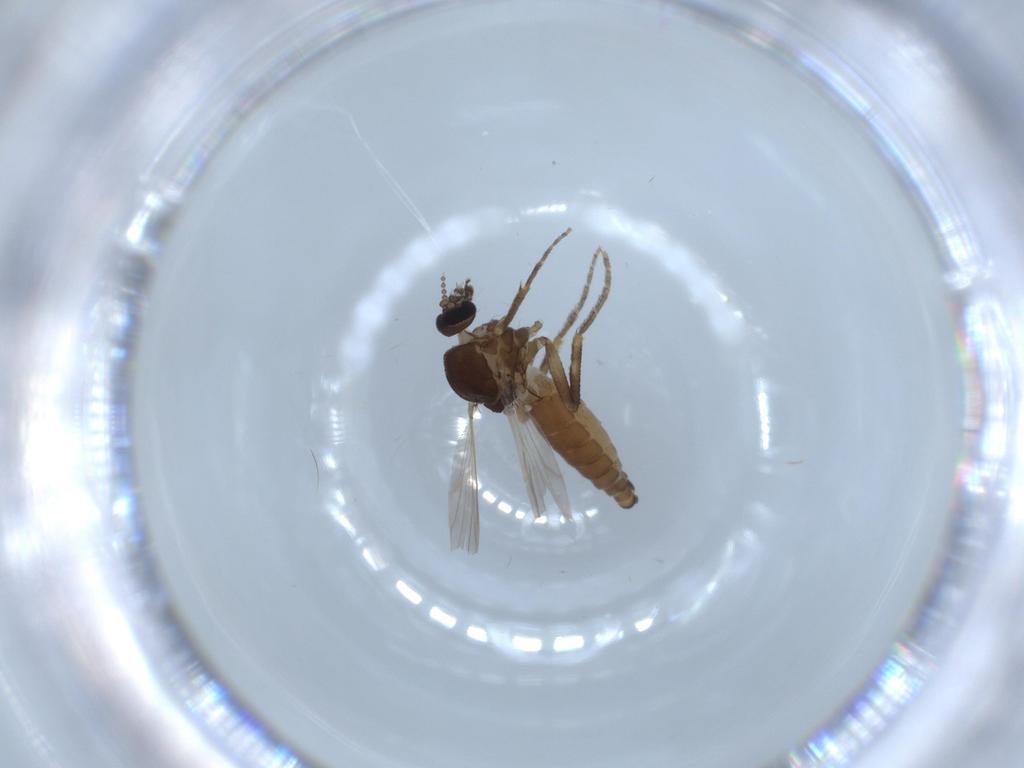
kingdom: Animalia
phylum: Arthropoda
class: Insecta
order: Diptera
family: Ceratopogonidae
